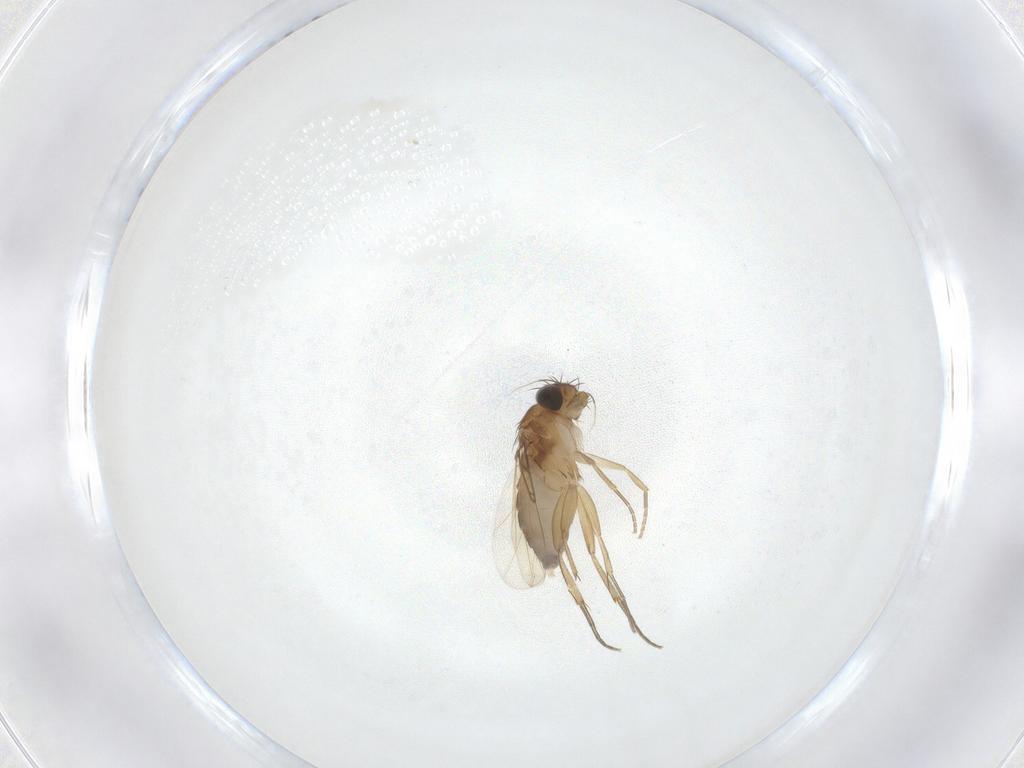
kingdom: Animalia
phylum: Arthropoda
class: Insecta
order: Diptera
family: Phoridae
